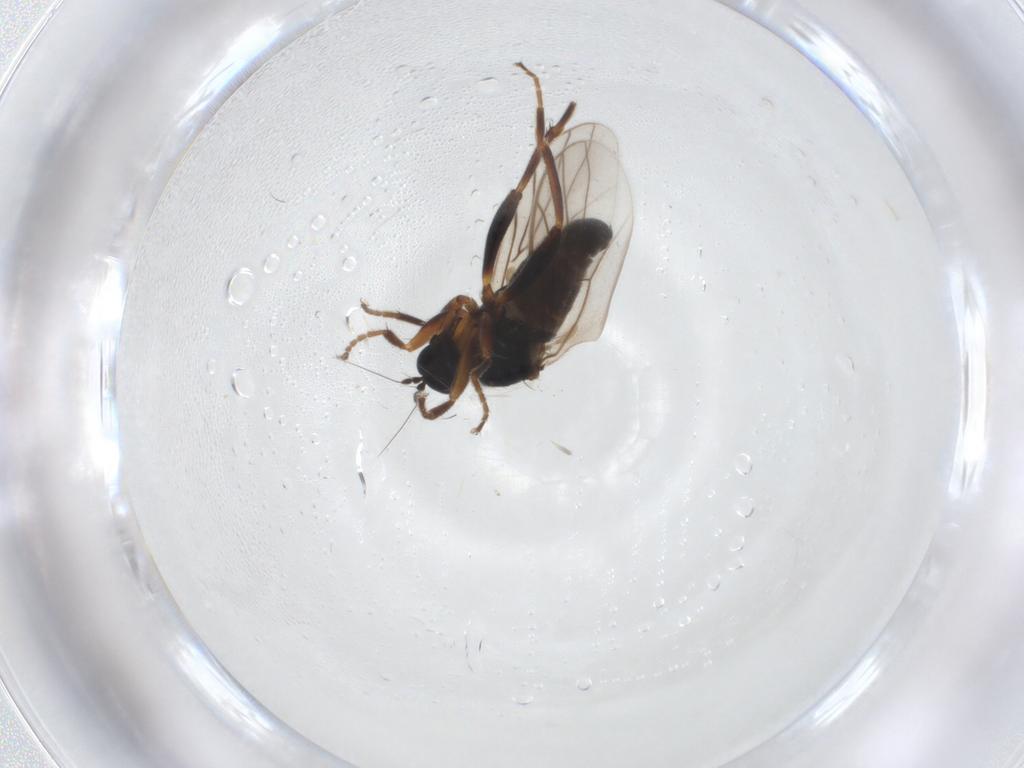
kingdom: Animalia
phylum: Arthropoda
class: Insecta
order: Diptera
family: Hybotidae
